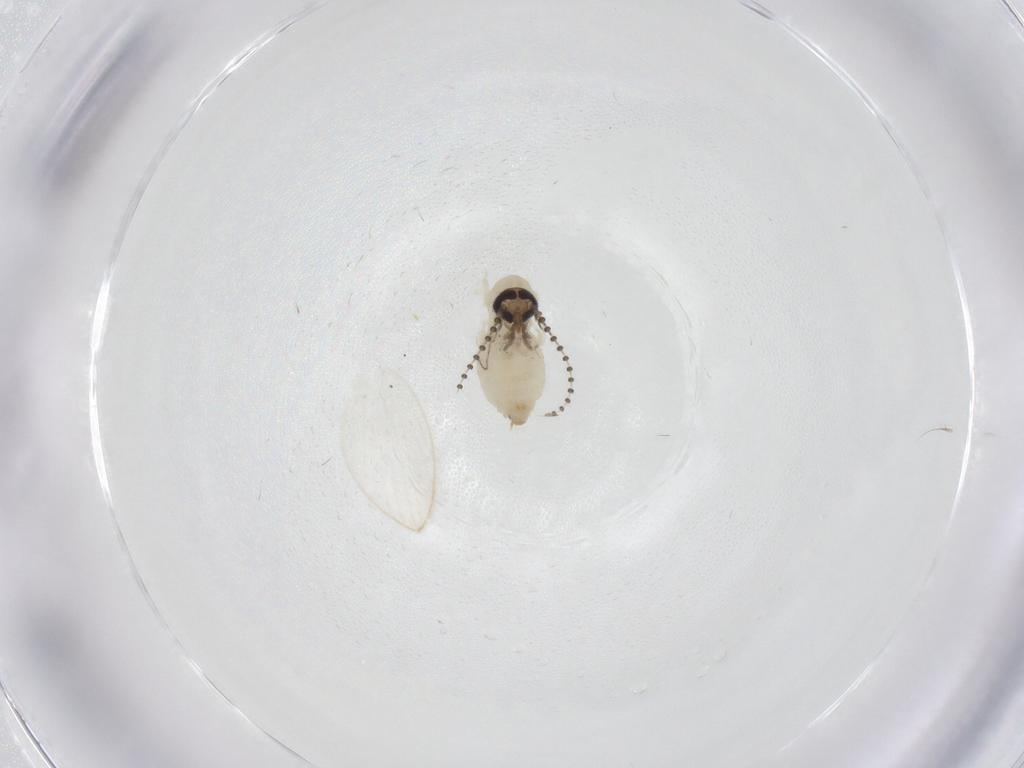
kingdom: Animalia
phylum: Arthropoda
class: Insecta
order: Diptera
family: Psychodidae
